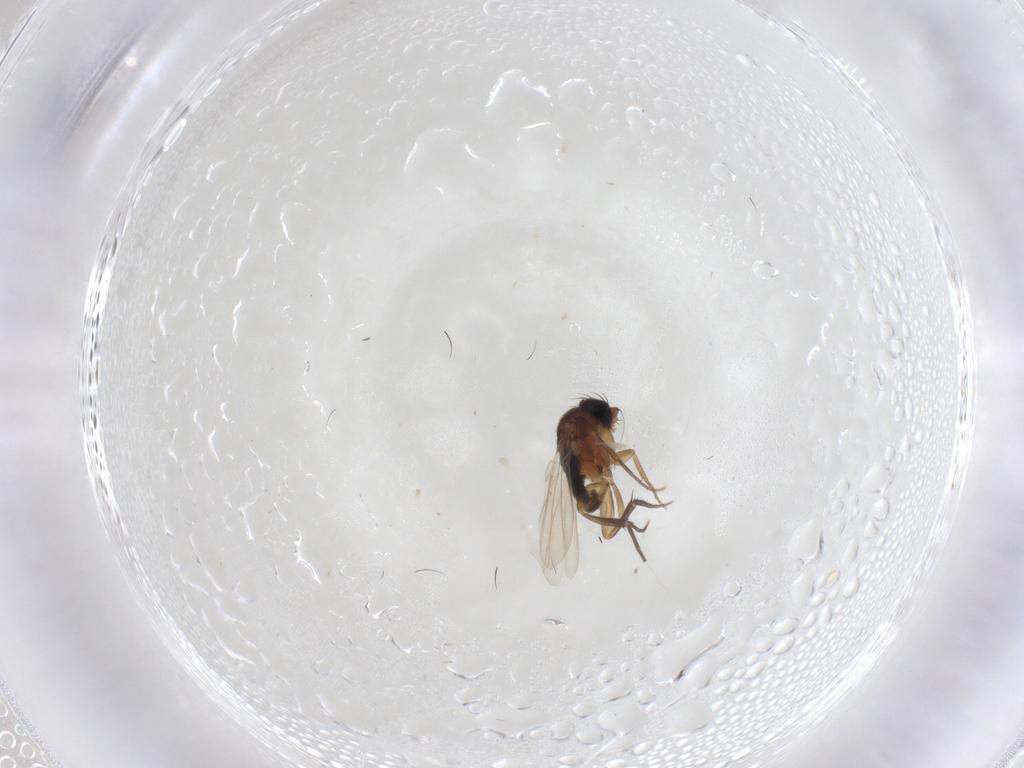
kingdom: Animalia
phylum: Arthropoda
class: Insecta
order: Diptera
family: Phoridae
